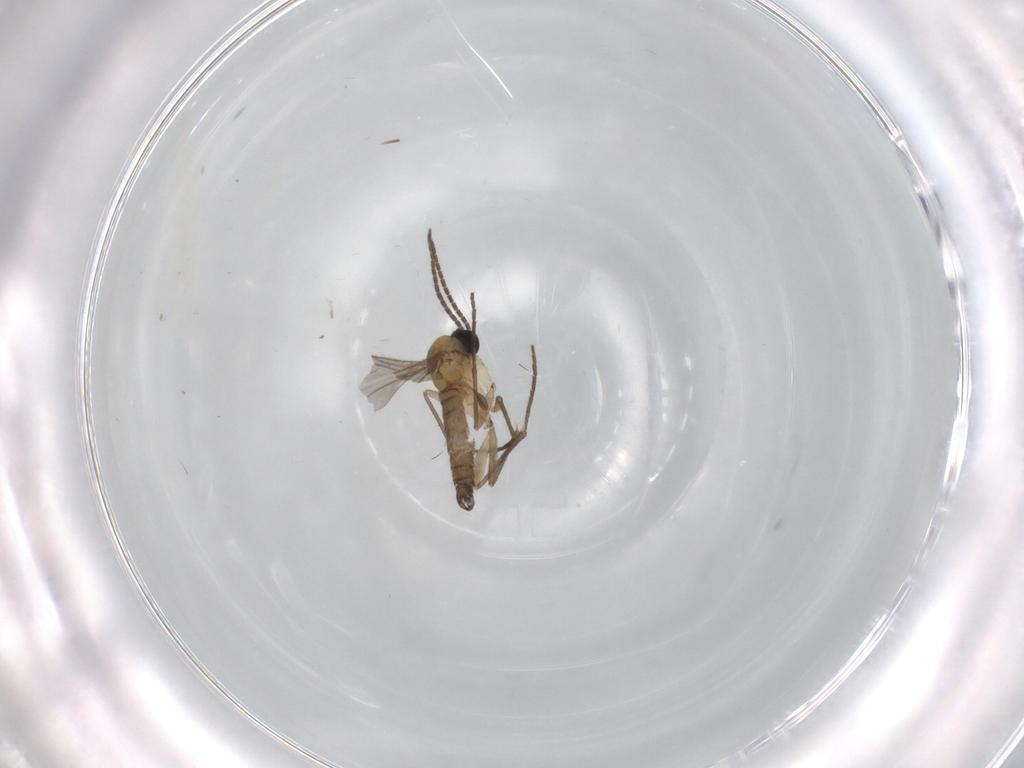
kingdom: Animalia
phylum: Arthropoda
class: Insecta
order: Diptera
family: Sciaridae
